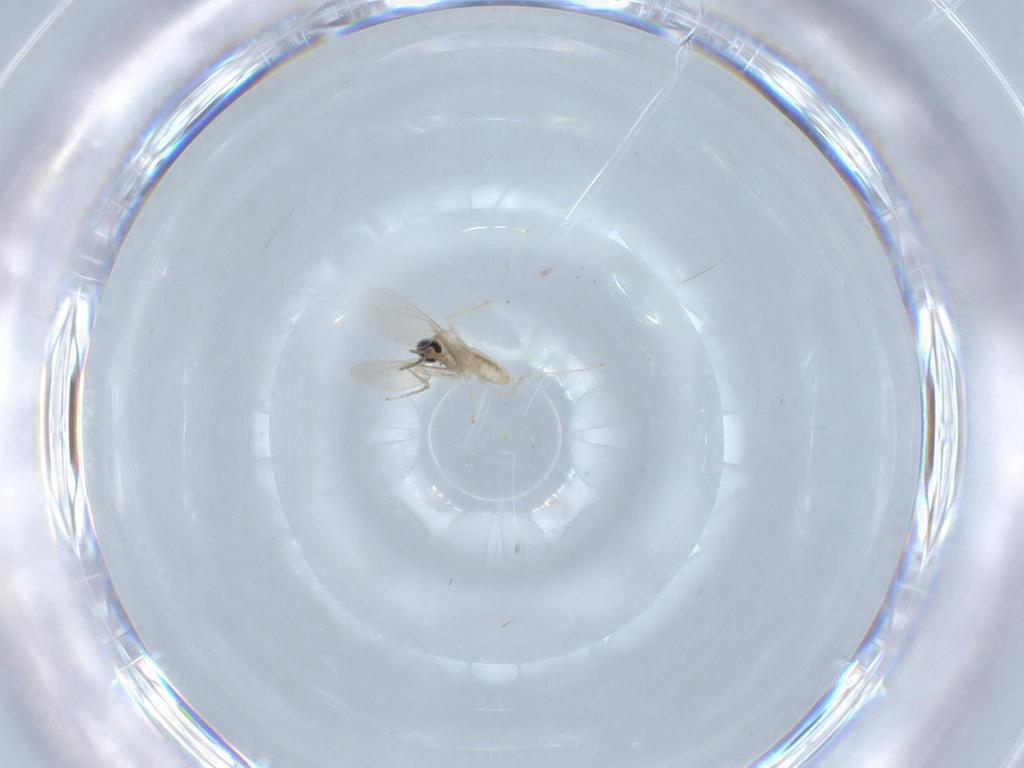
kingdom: Animalia
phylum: Arthropoda
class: Insecta
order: Diptera
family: Cecidomyiidae
